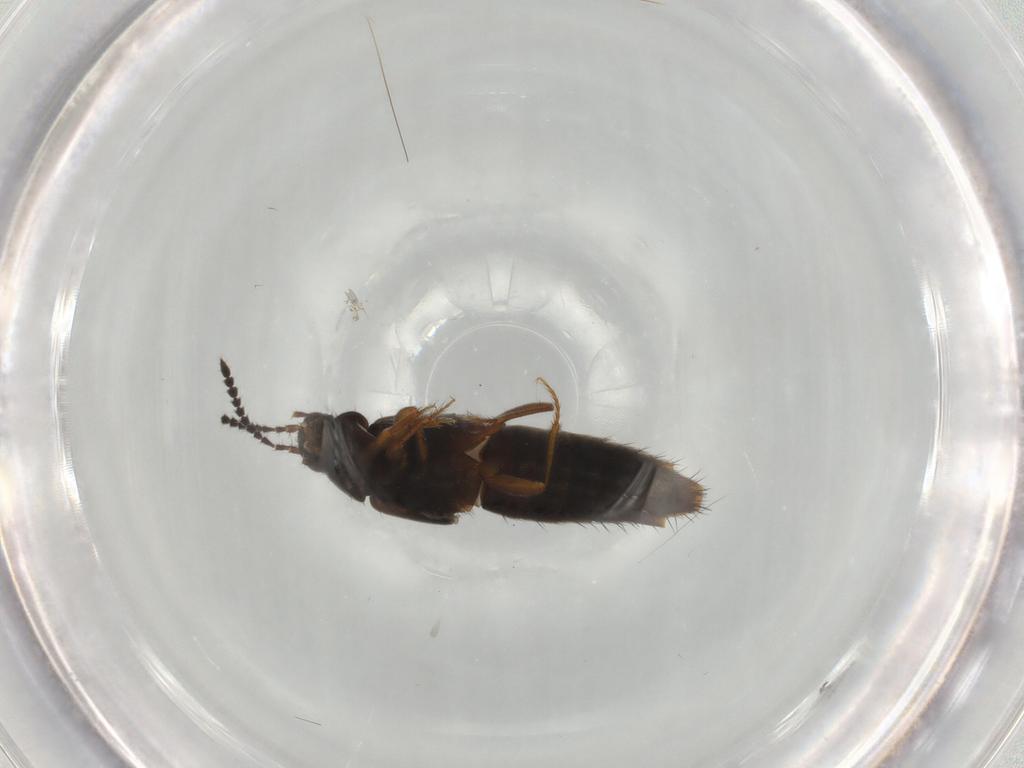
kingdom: Animalia
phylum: Arthropoda
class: Insecta
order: Coleoptera
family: Staphylinidae
